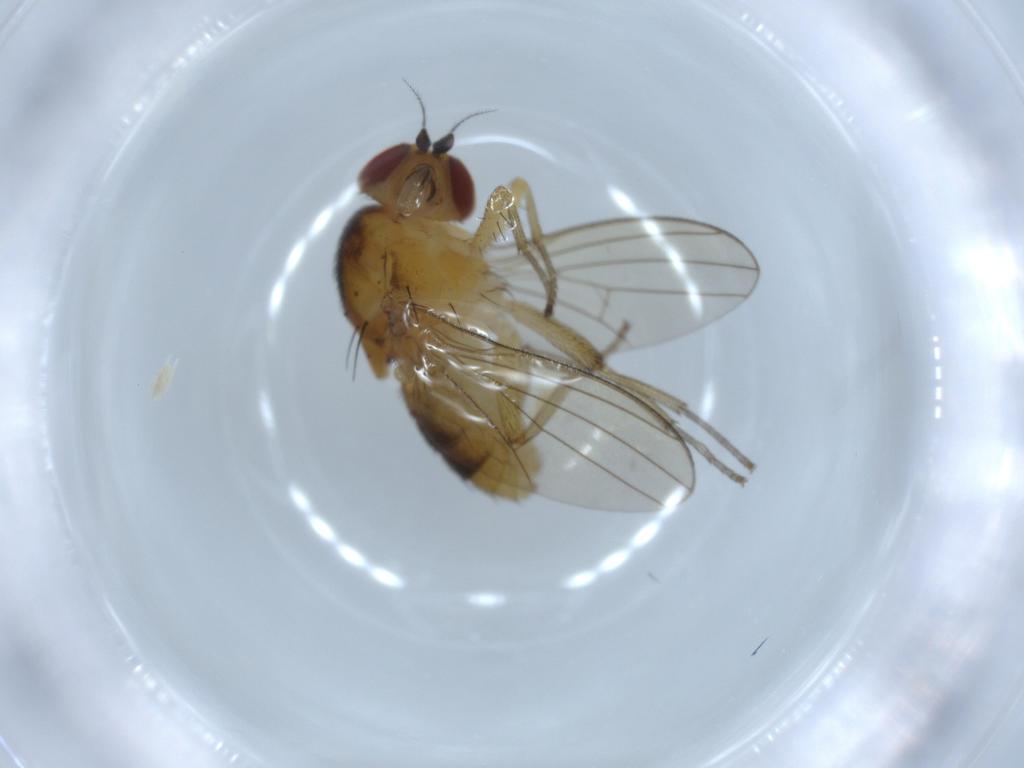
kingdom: Animalia
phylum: Arthropoda
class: Insecta
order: Diptera
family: Lauxaniidae
